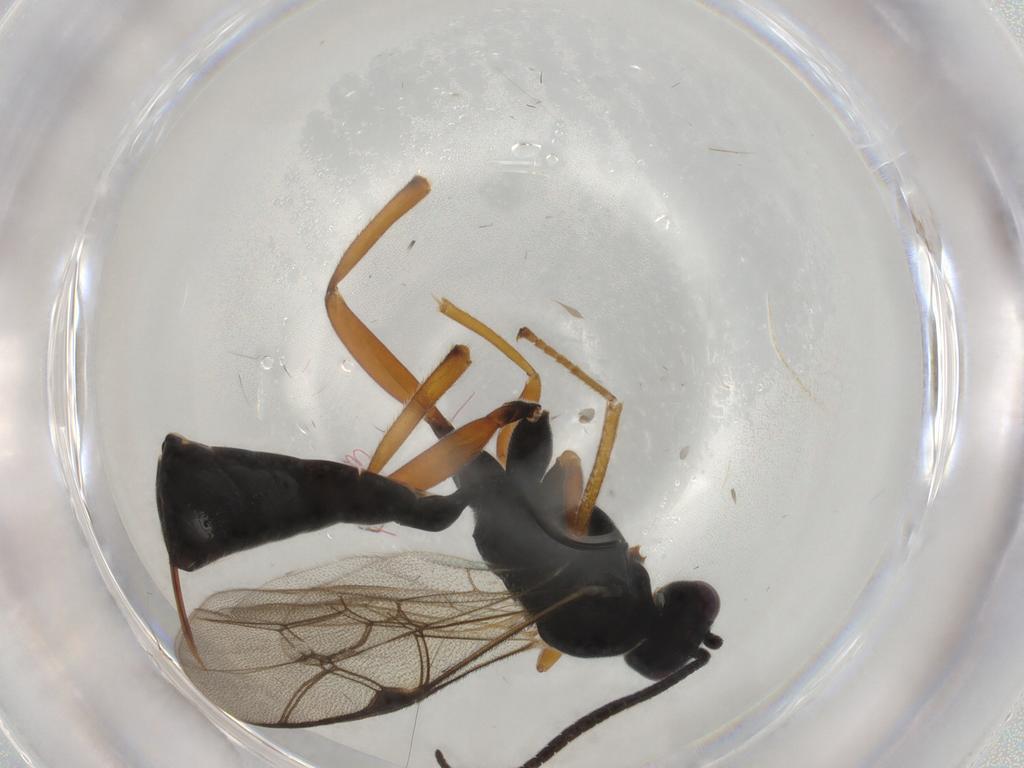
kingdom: Animalia
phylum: Arthropoda
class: Insecta
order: Hymenoptera
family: Ichneumonidae
